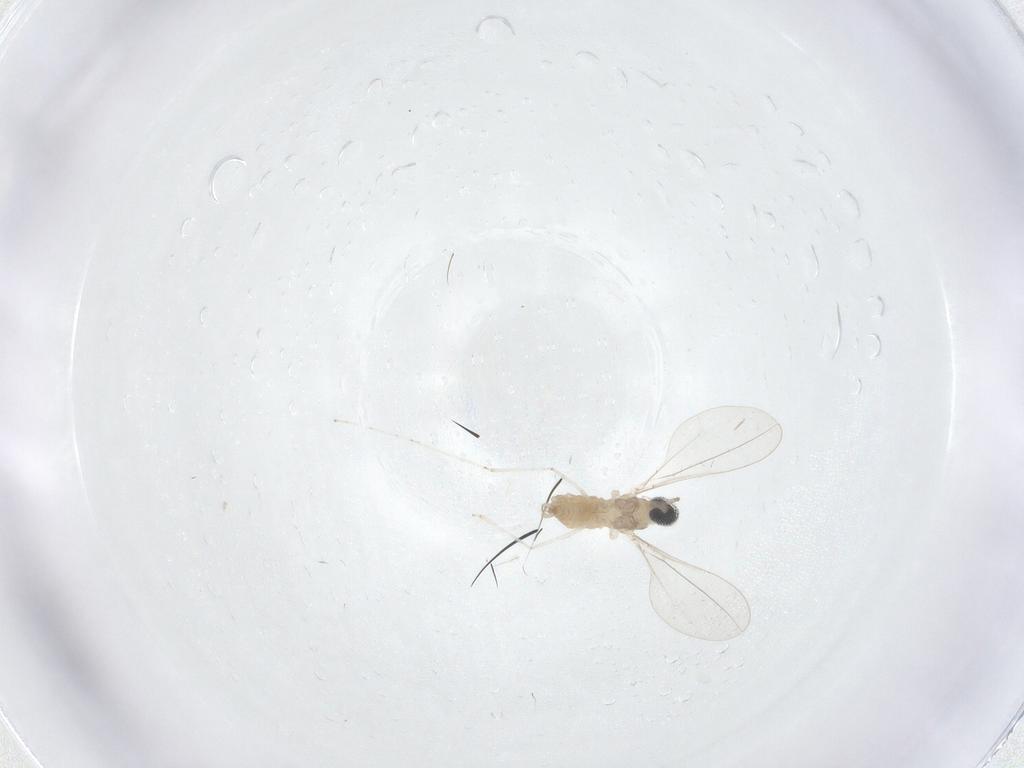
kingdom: Animalia
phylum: Arthropoda
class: Insecta
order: Diptera
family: Cecidomyiidae
